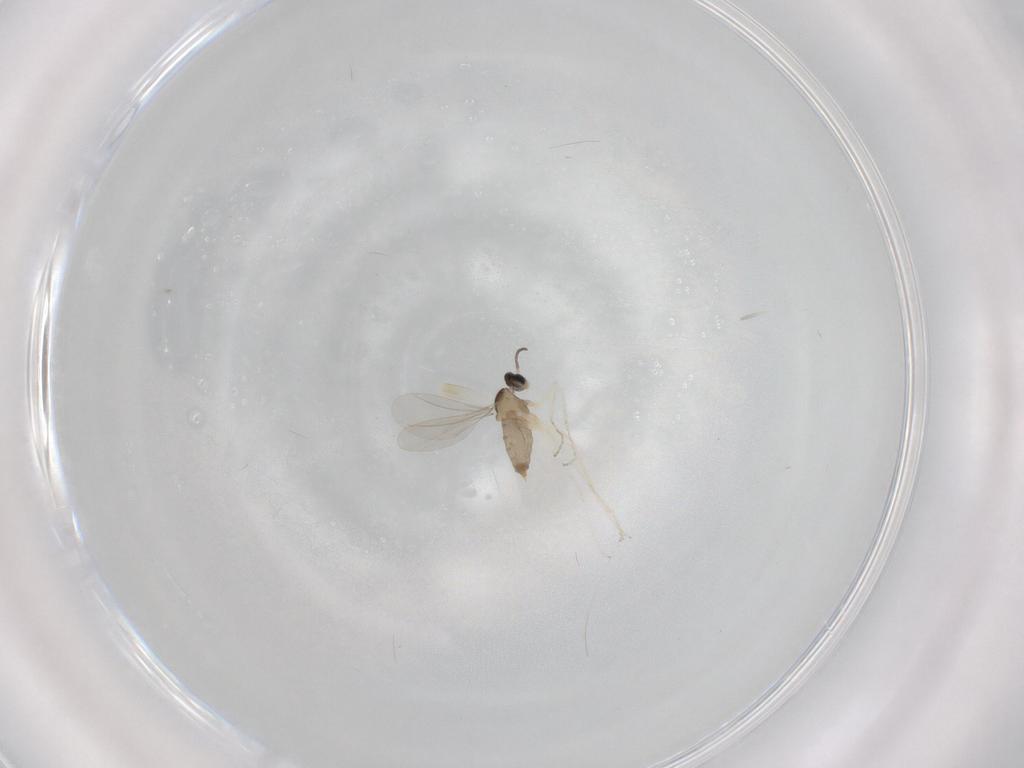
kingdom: Animalia
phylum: Arthropoda
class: Insecta
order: Diptera
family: Cecidomyiidae
